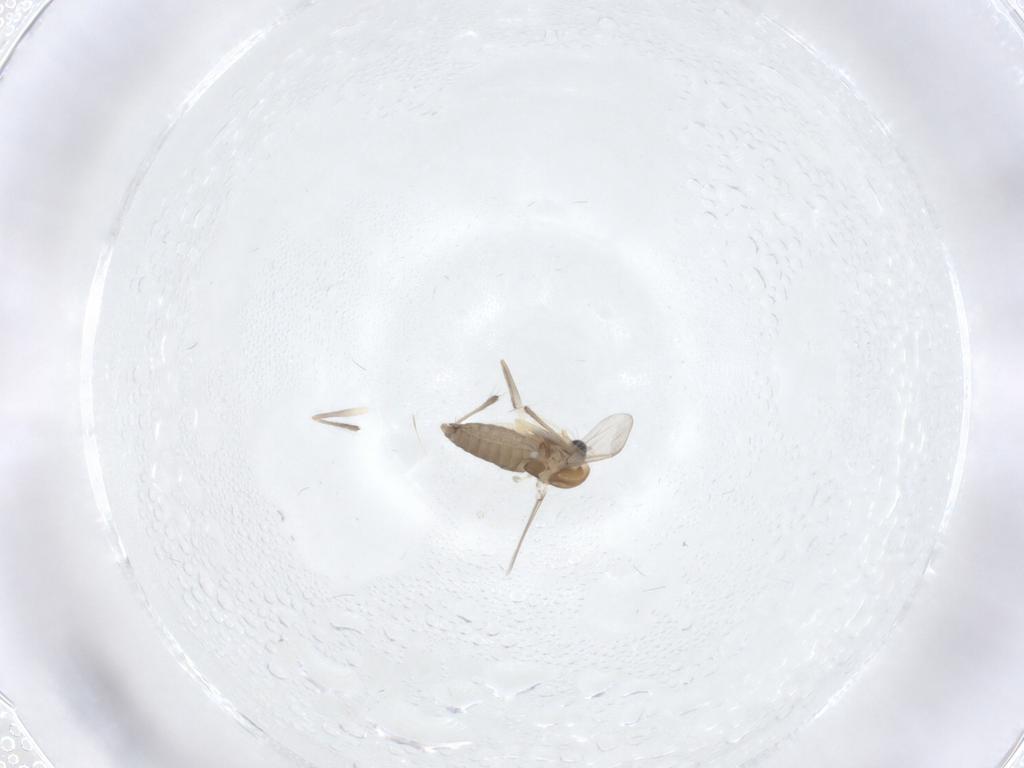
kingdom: Animalia
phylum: Arthropoda
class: Insecta
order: Diptera
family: Chironomidae
